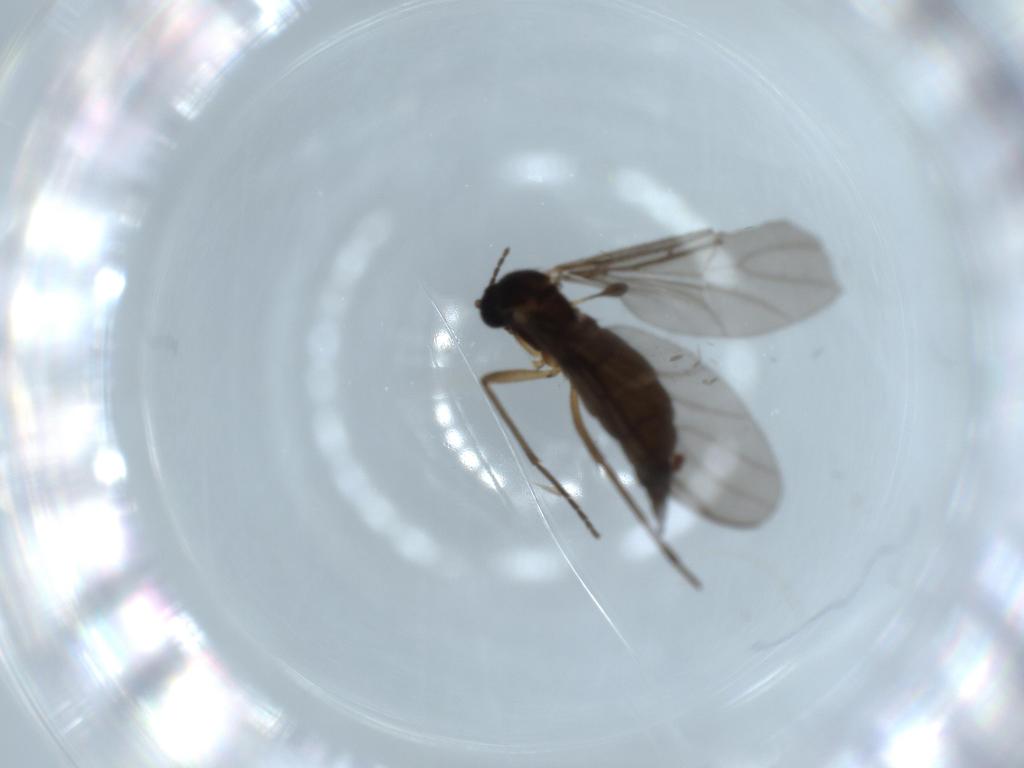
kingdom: Animalia
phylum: Arthropoda
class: Insecta
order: Diptera
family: Sciaridae
